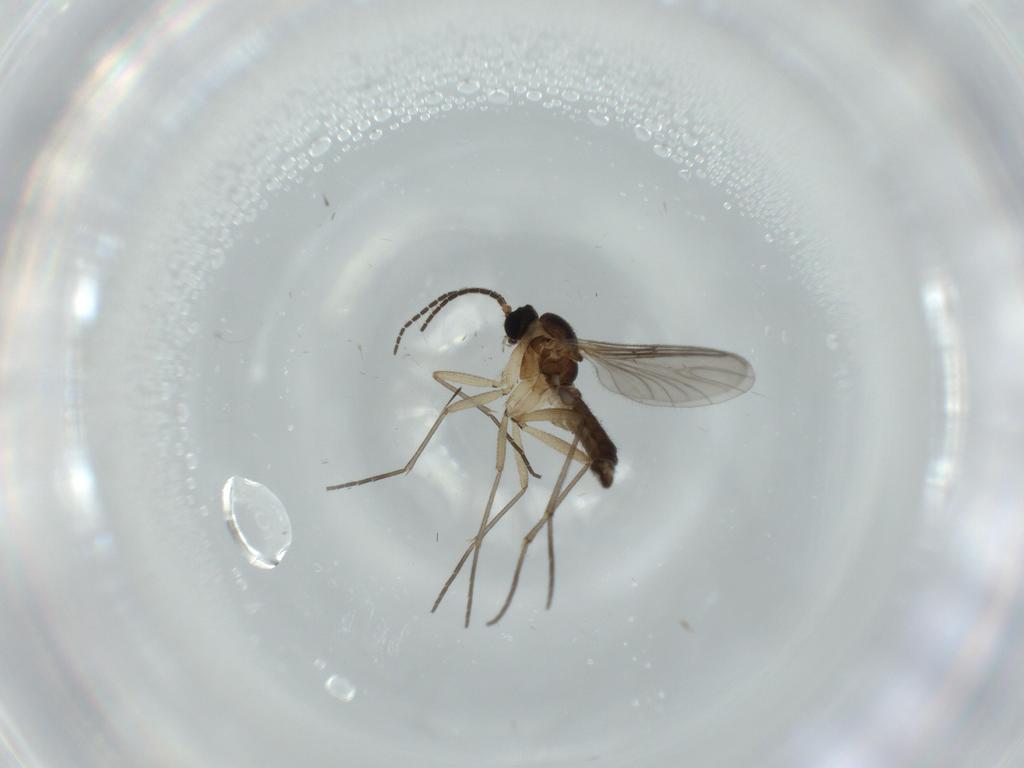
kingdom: Animalia
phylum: Arthropoda
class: Insecta
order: Diptera
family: Sciaridae
